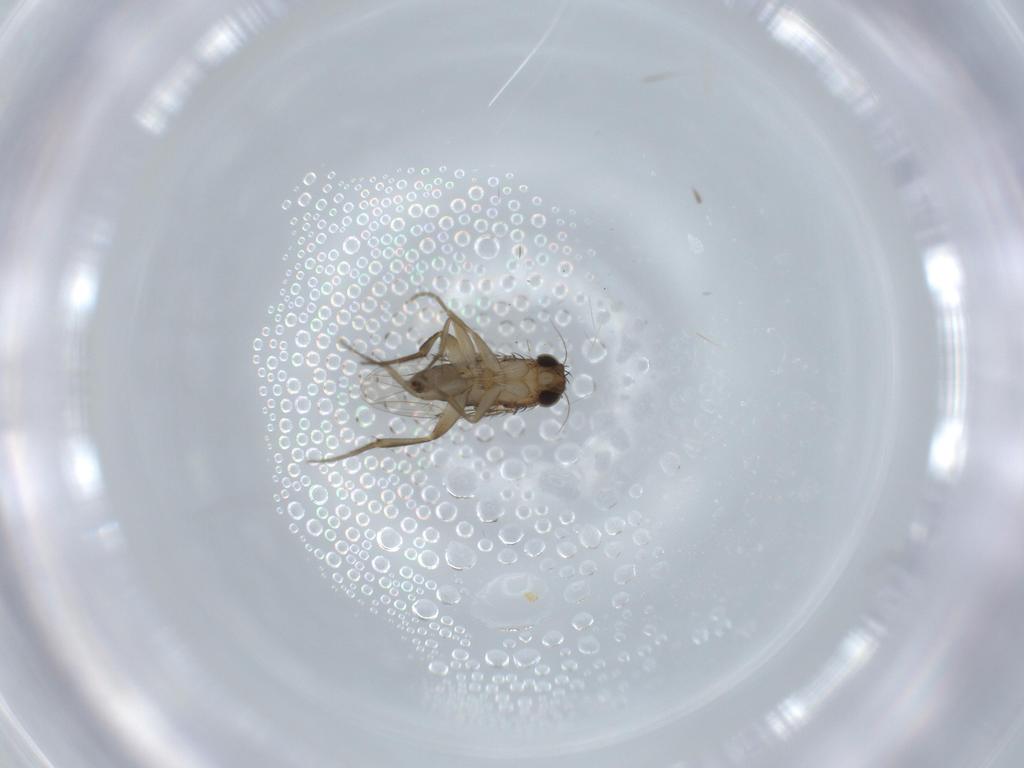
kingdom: Animalia
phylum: Arthropoda
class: Insecta
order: Diptera
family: Phoridae
